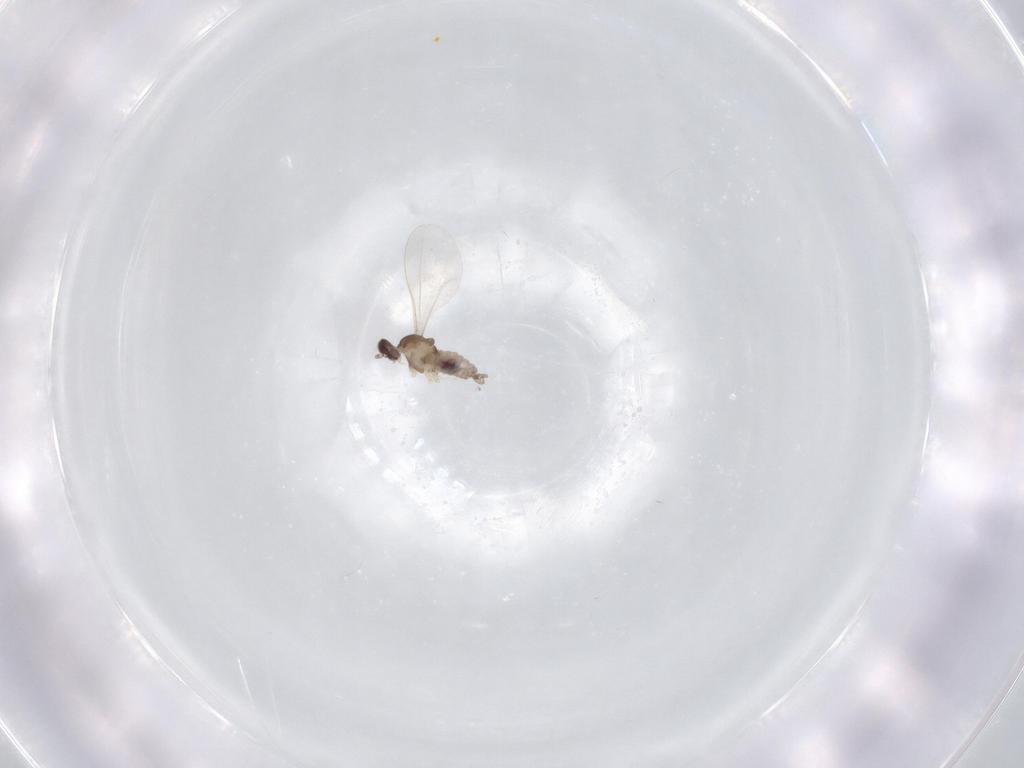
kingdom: Animalia
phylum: Arthropoda
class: Insecta
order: Diptera
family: Cecidomyiidae
